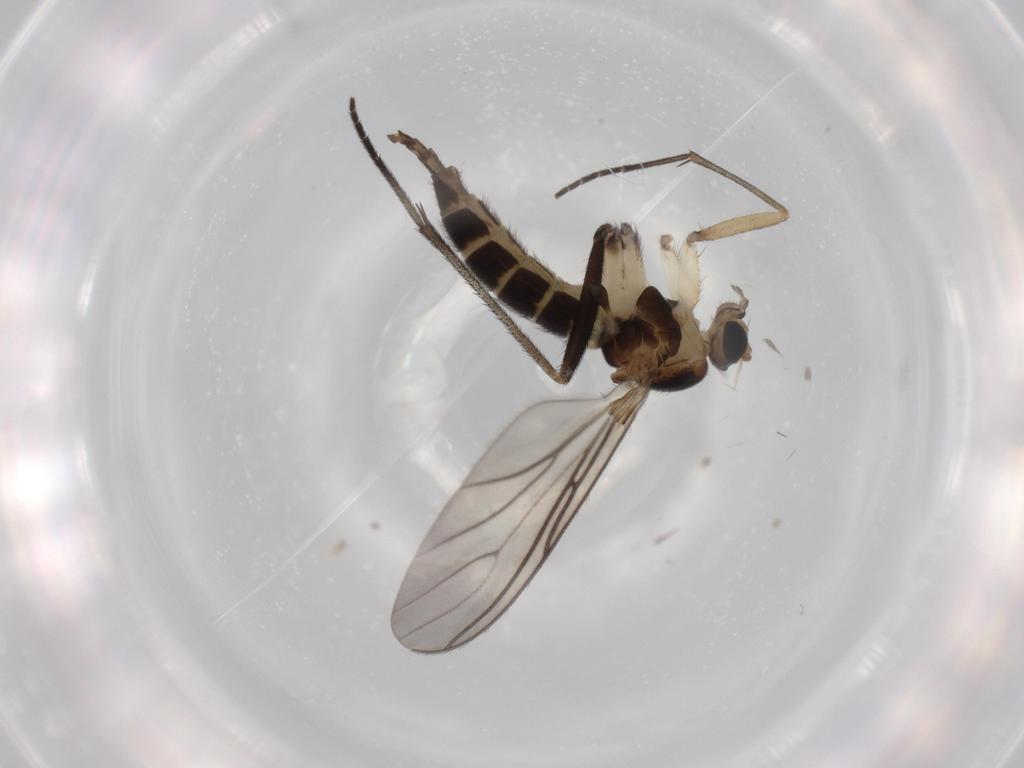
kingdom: Animalia
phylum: Arthropoda
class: Insecta
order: Diptera
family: Sciaridae
